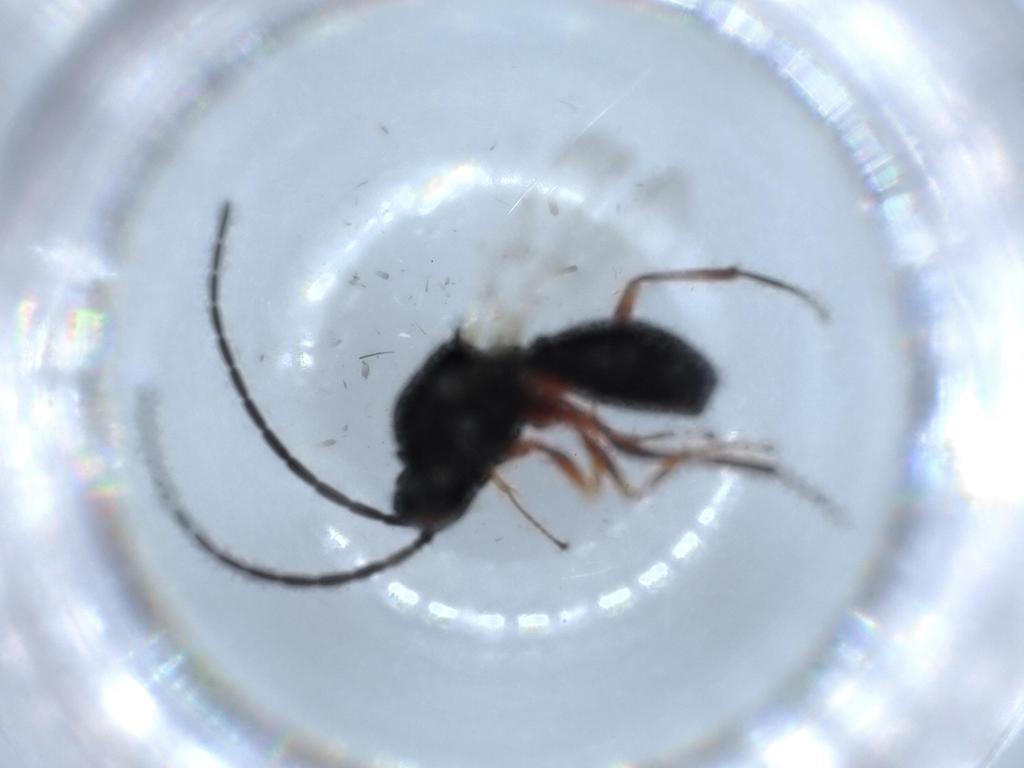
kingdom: Animalia
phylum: Arthropoda
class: Insecta
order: Hymenoptera
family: Figitidae
